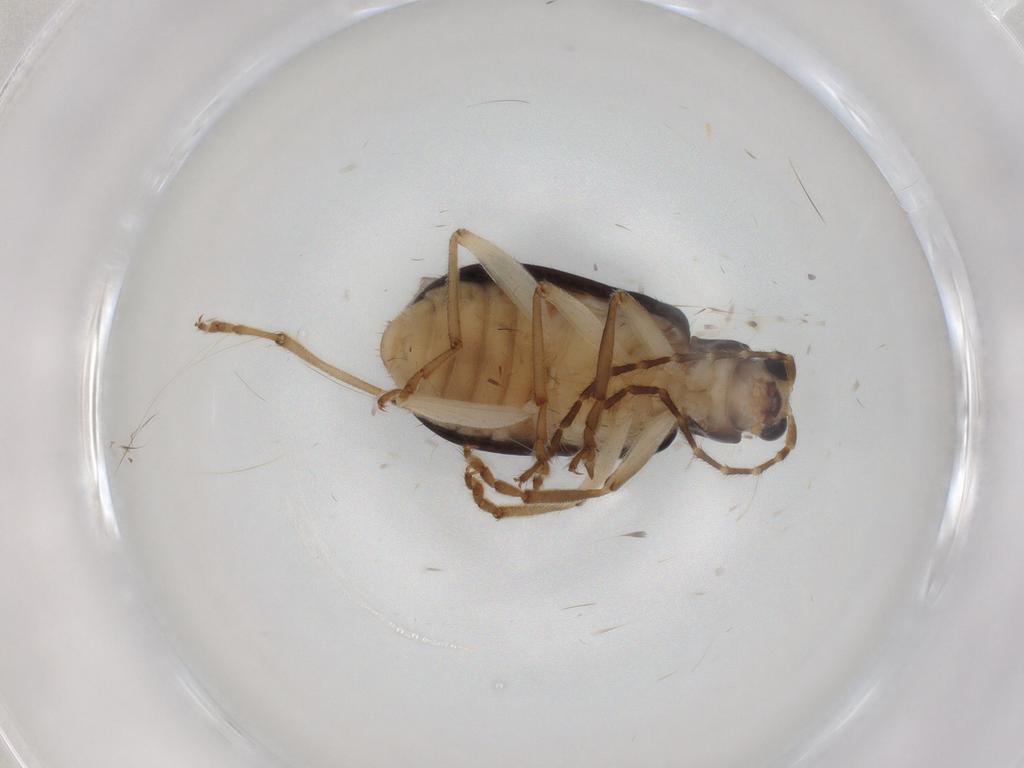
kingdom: Animalia
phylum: Arthropoda
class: Insecta
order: Coleoptera
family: Chrysomelidae
